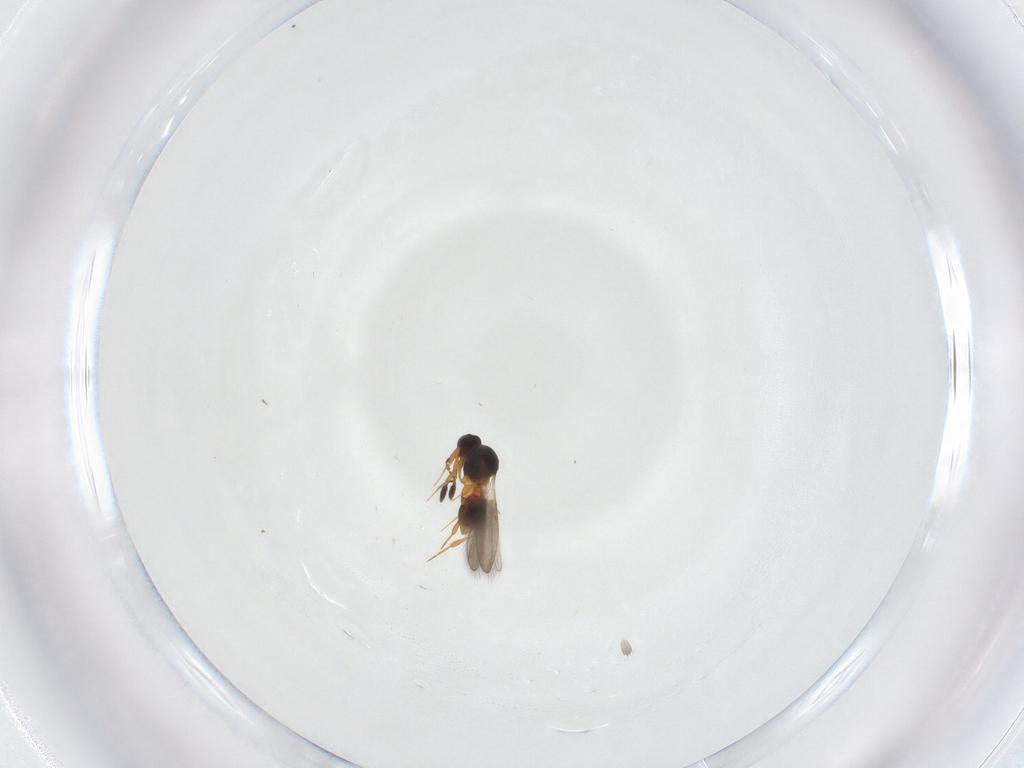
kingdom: Animalia
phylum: Arthropoda
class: Insecta
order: Hymenoptera
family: Platygastridae
